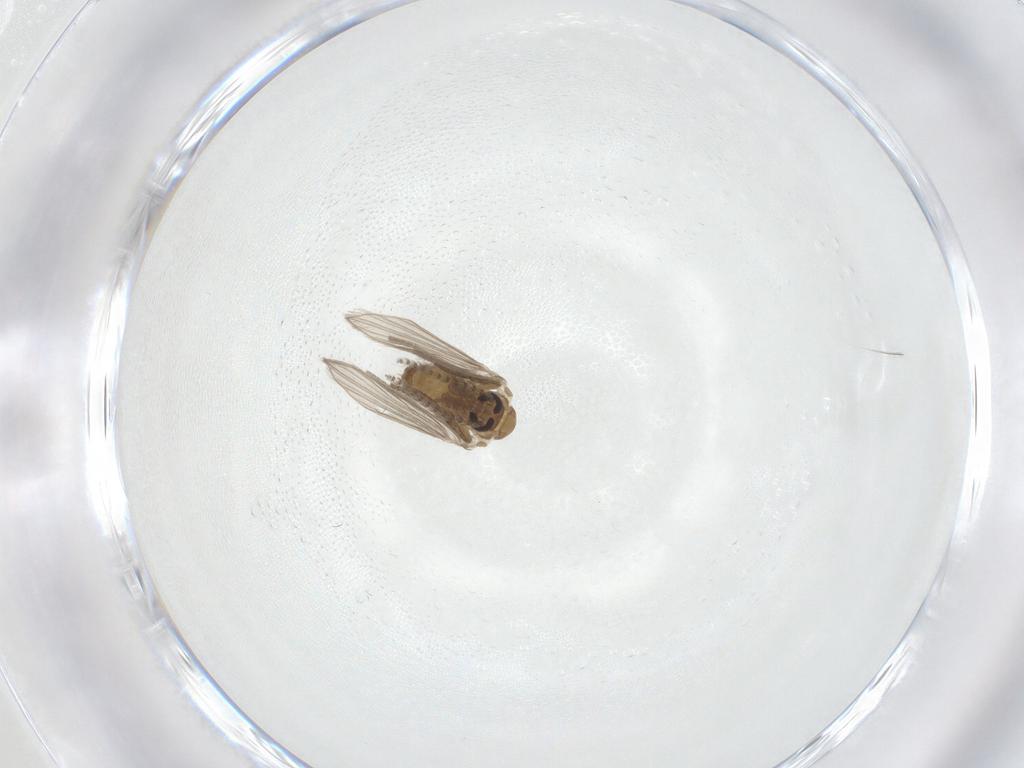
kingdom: Animalia
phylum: Arthropoda
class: Insecta
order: Diptera
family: Psychodidae
